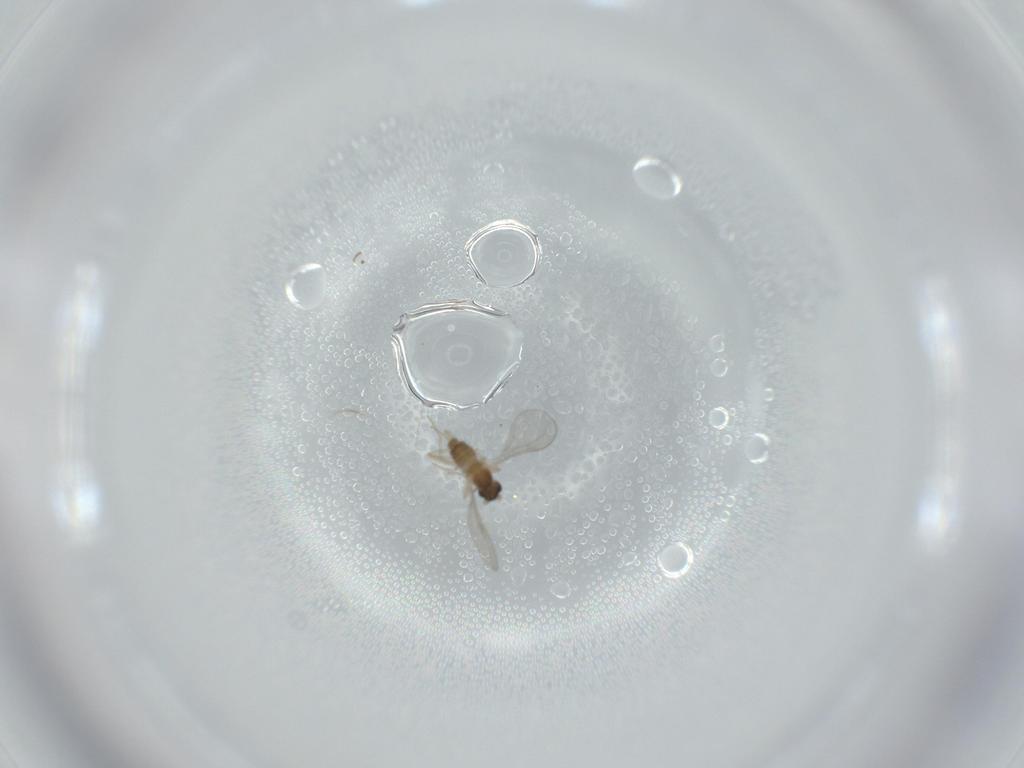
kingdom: Animalia
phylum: Arthropoda
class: Insecta
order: Diptera
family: Cecidomyiidae
